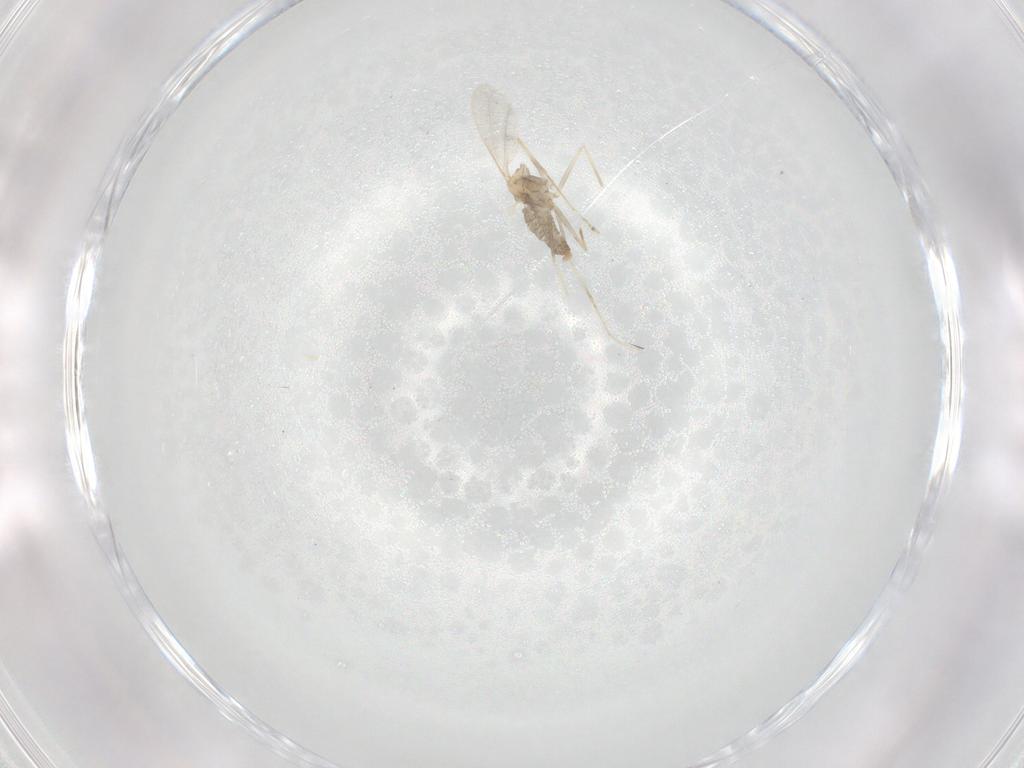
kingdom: Animalia
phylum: Arthropoda
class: Insecta
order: Diptera
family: Cecidomyiidae
